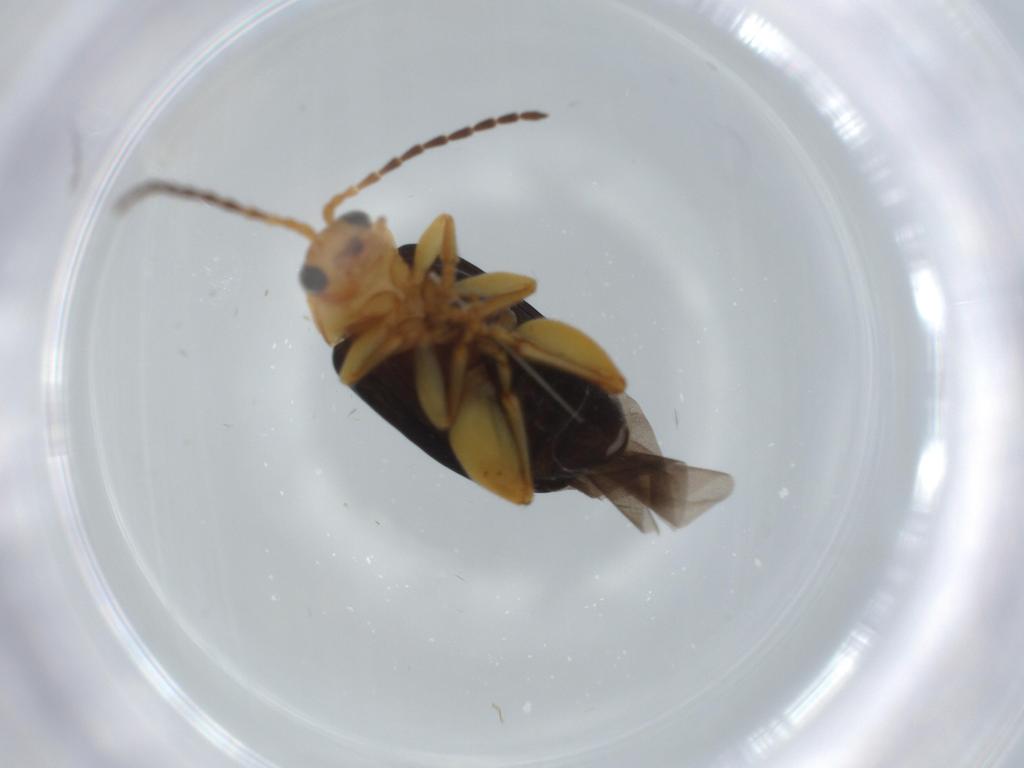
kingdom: Animalia
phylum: Arthropoda
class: Insecta
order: Coleoptera
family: Chrysomelidae
